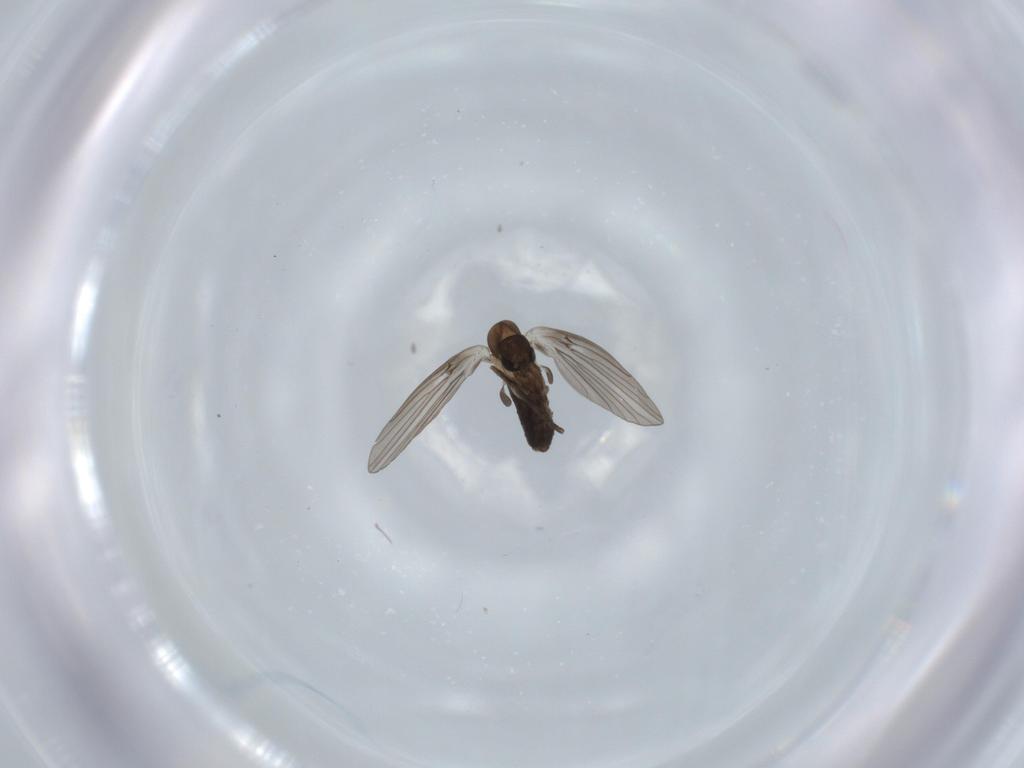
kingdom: Animalia
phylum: Arthropoda
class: Insecta
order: Diptera
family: Psychodidae
